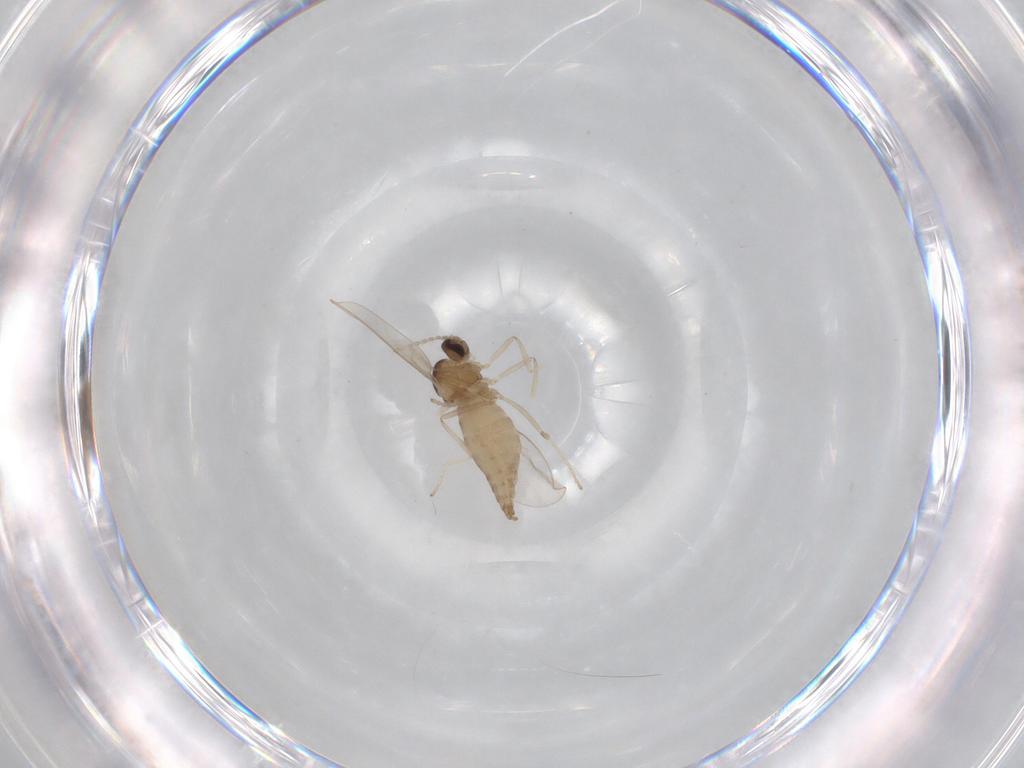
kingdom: Animalia
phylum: Arthropoda
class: Insecta
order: Diptera
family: Cecidomyiidae
